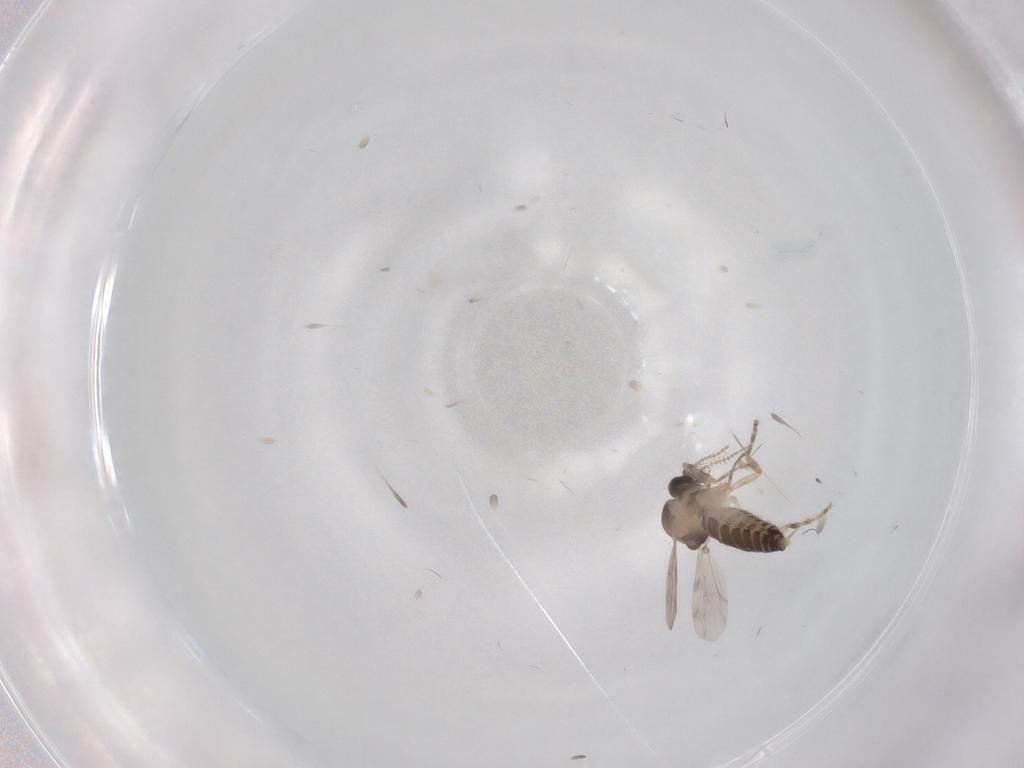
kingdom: Animalia
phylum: Arthropoda
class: Insecta
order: Diptera
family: Ceratopogonidae
